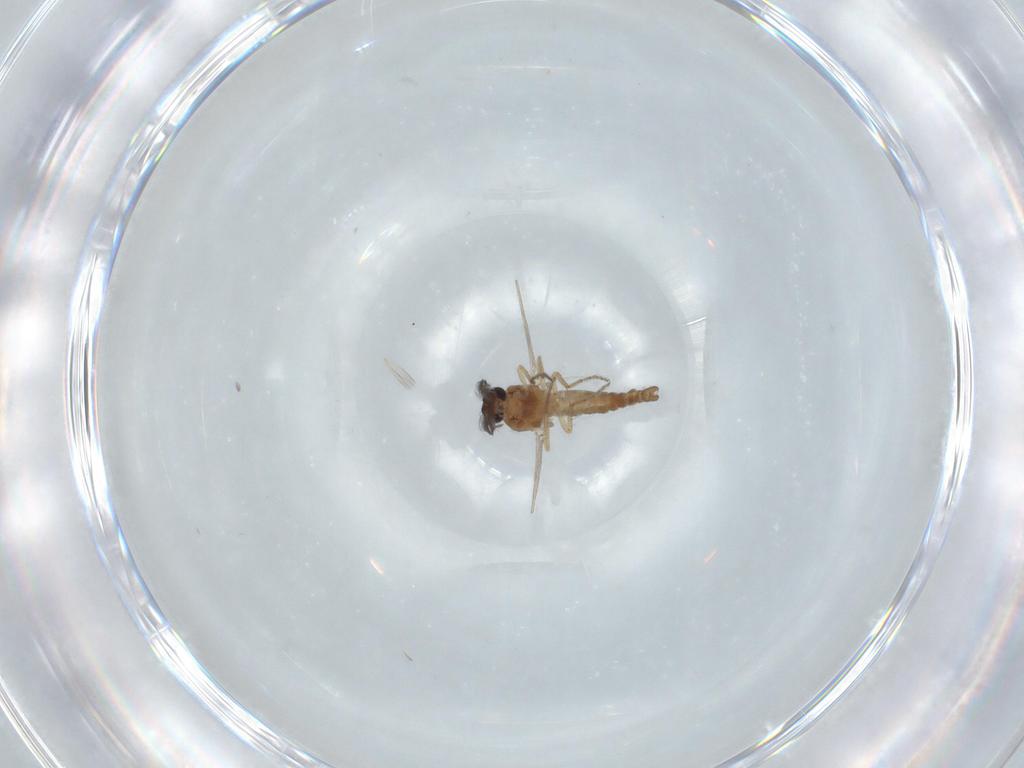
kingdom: Animalia
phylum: Arthropoda
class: Insecta
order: Diptera
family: Ceratopogonidae
